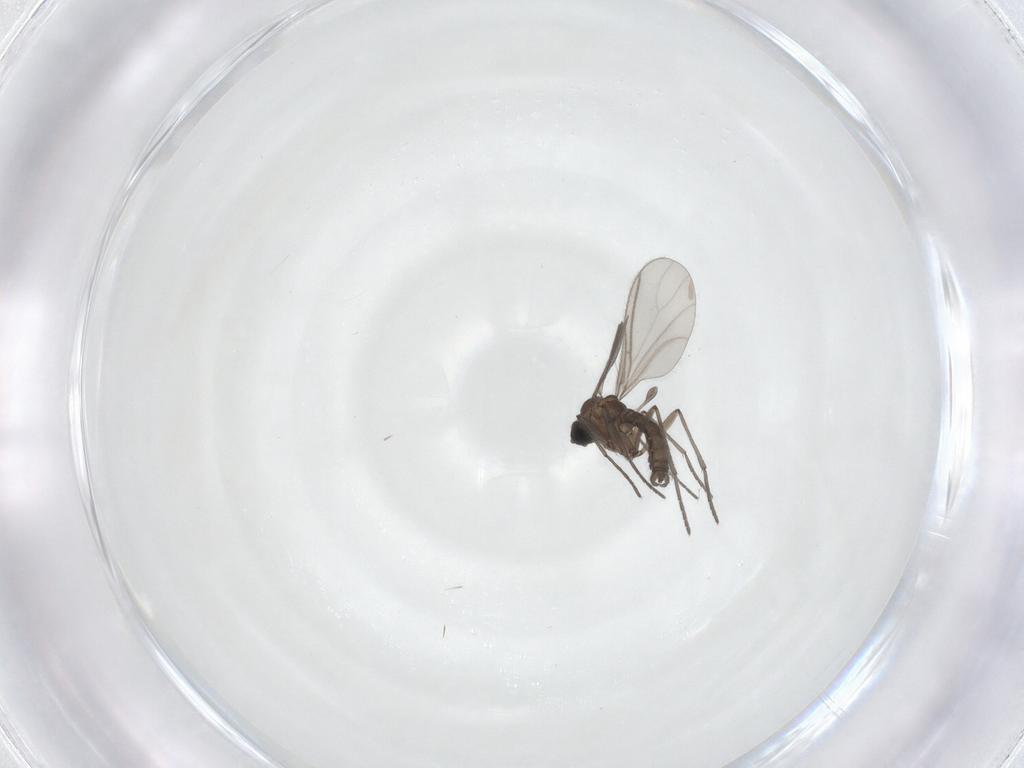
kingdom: Animalia
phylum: Arthropoda
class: Insecta
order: Diptera
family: Sciaridae
